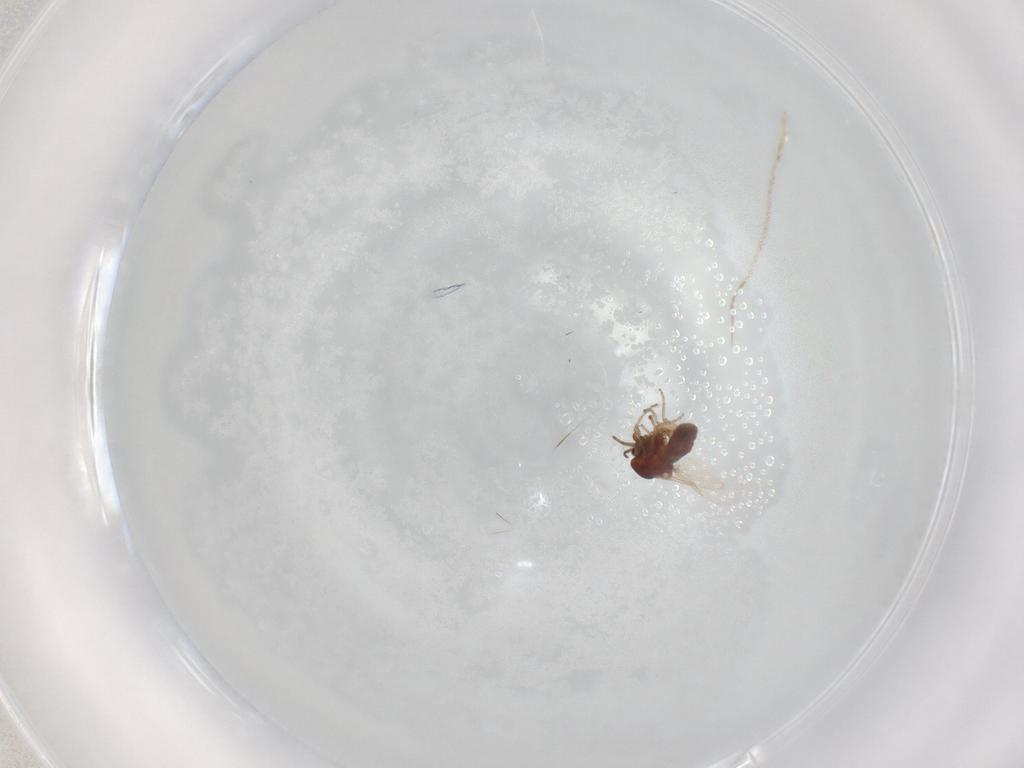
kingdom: Animalia
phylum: Arthropoda
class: Insecta
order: Diptera
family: Ceratopogonidae
